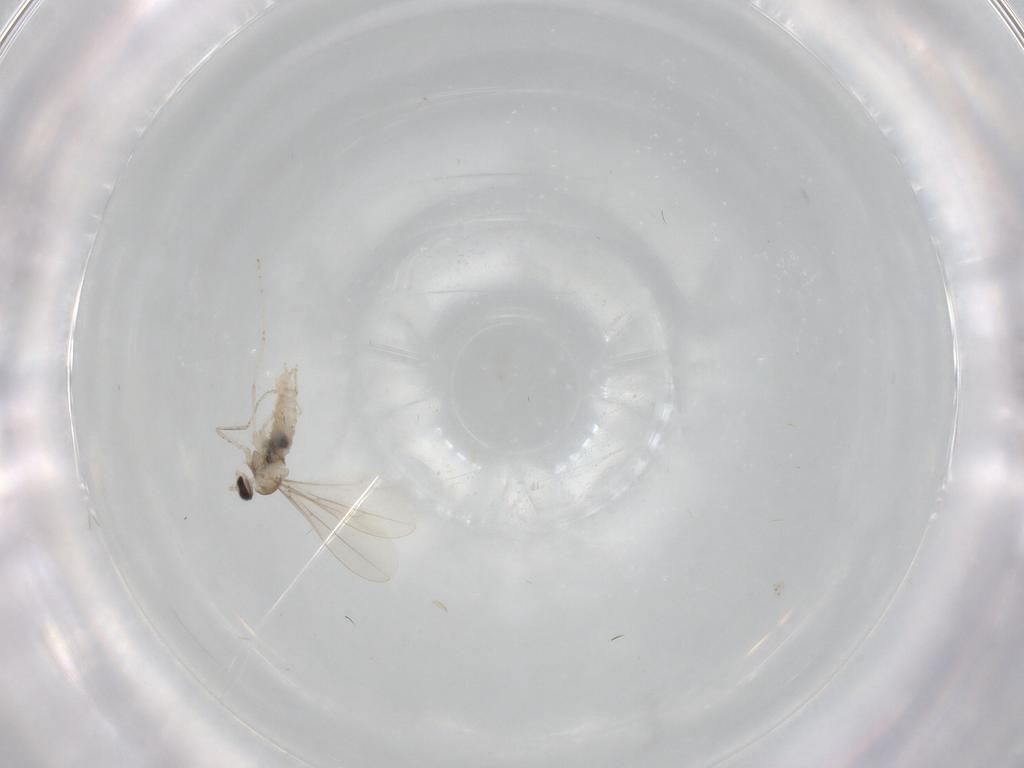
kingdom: Animalia
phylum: Arthropoda
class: Insecta
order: Diptera
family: Cecidomyiidae
